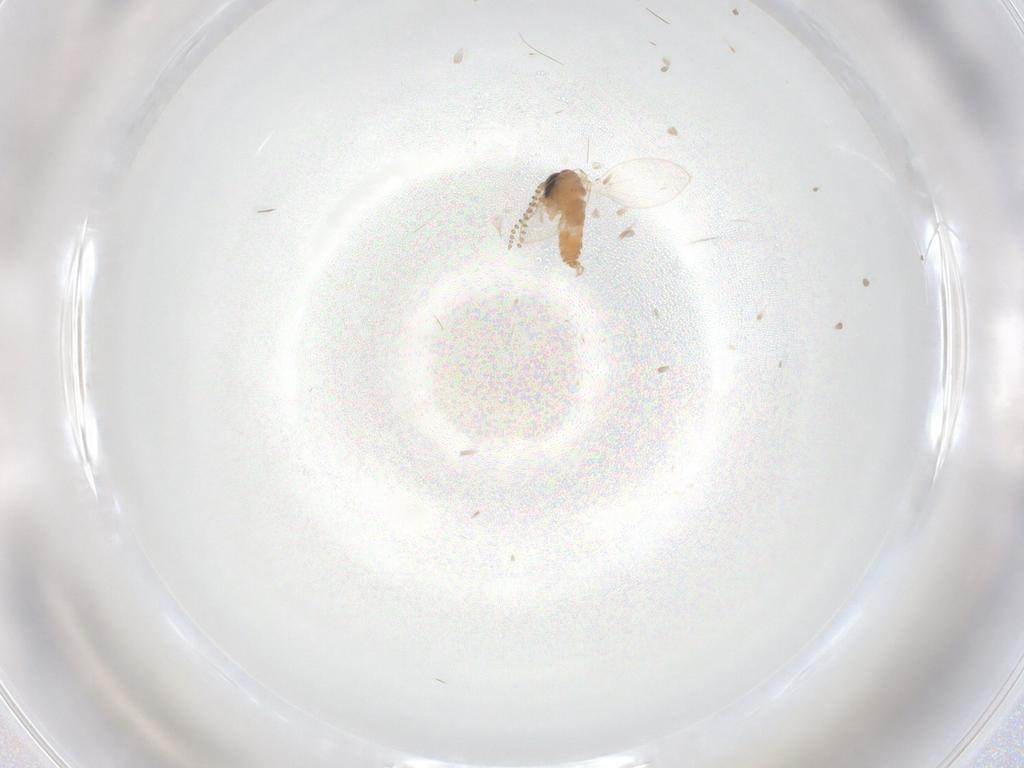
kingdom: Animalia
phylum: Arthropoda
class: Insecta
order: Diptera
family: Psychodidae
